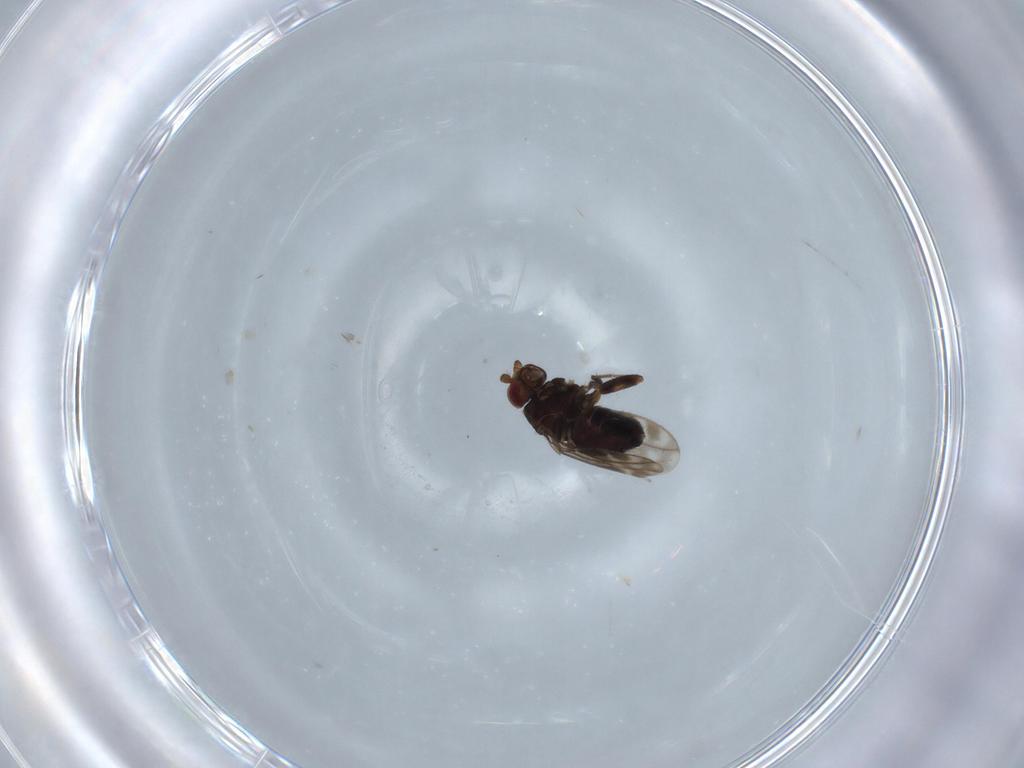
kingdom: Animalia
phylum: Arthropoda
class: Insecta
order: Diptera
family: Sphaeroceridae
